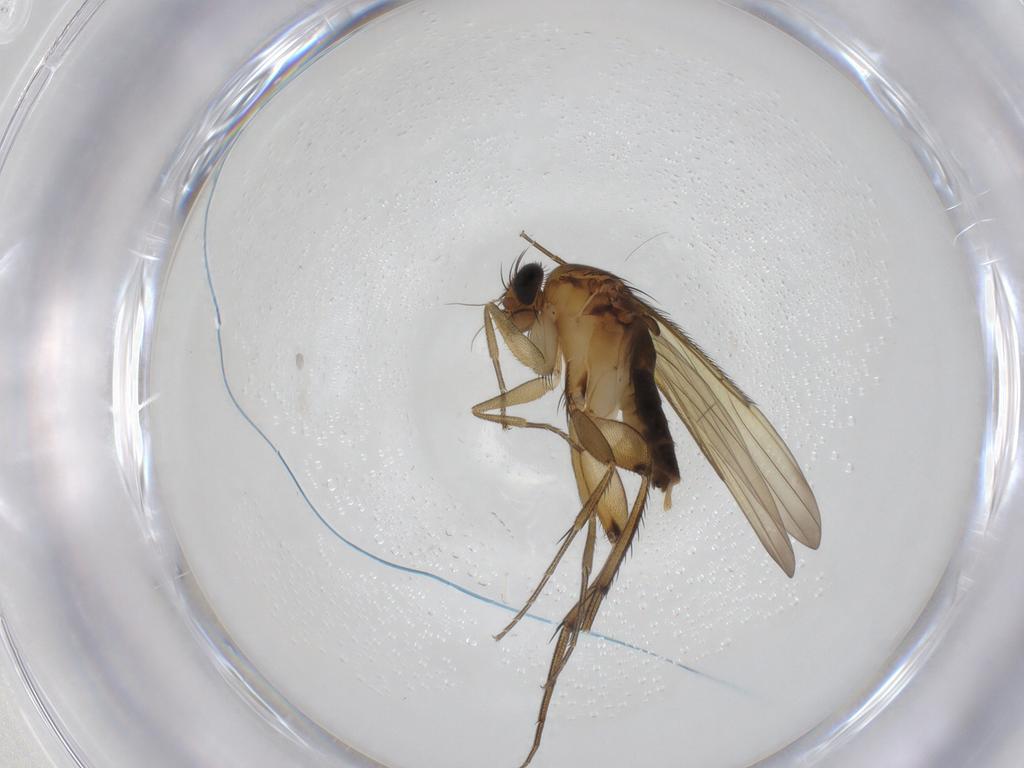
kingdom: Animalia
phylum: Arthropoda
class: Insecta
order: Diptera
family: Phoridae
